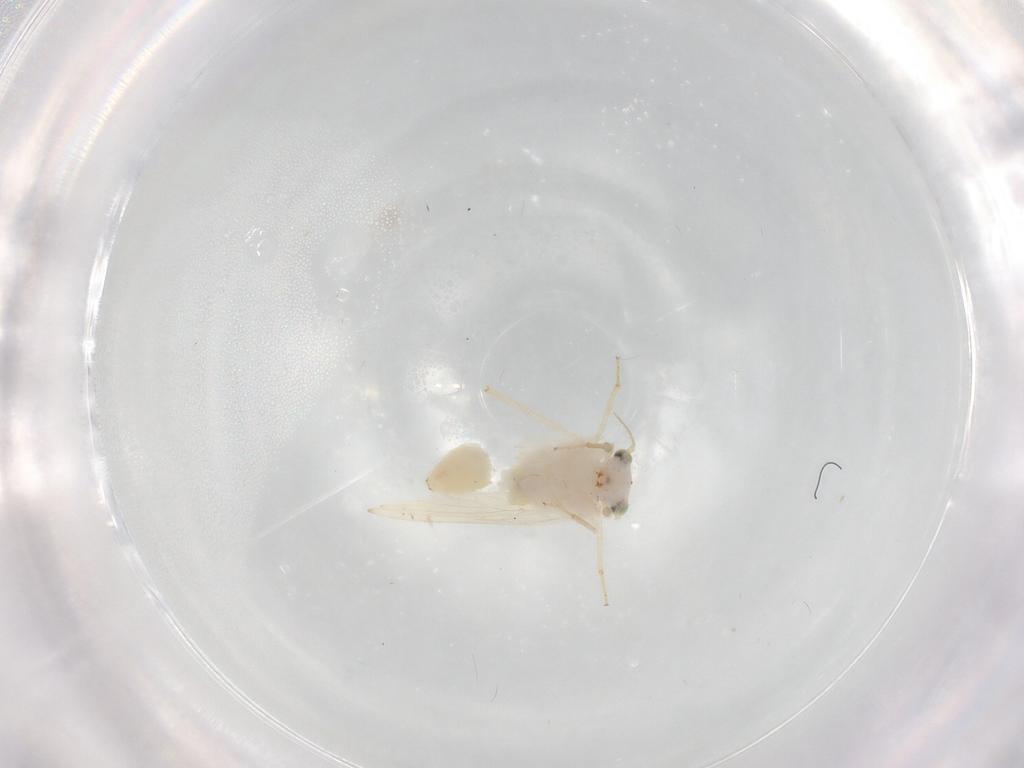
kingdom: Animalia
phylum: Arthropoda
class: Insecta
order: Psocodea
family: Lepidopsocidae
